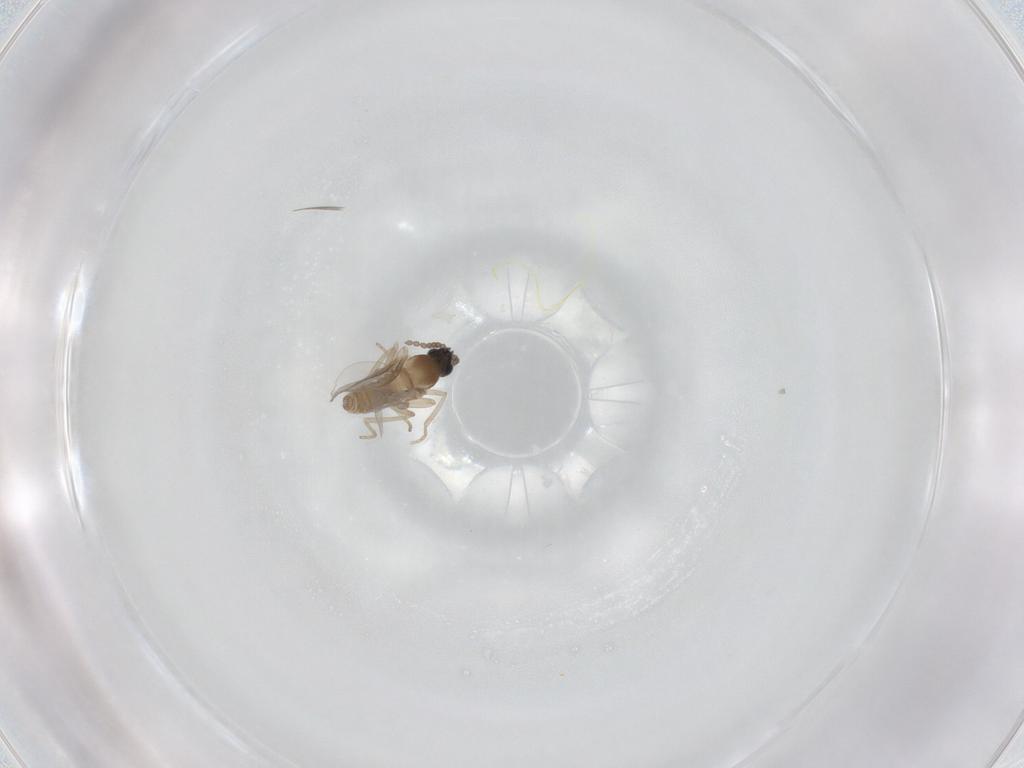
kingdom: Animalia
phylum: Arthropoda
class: Insecta
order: Diptera
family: Cecidomyiidae
